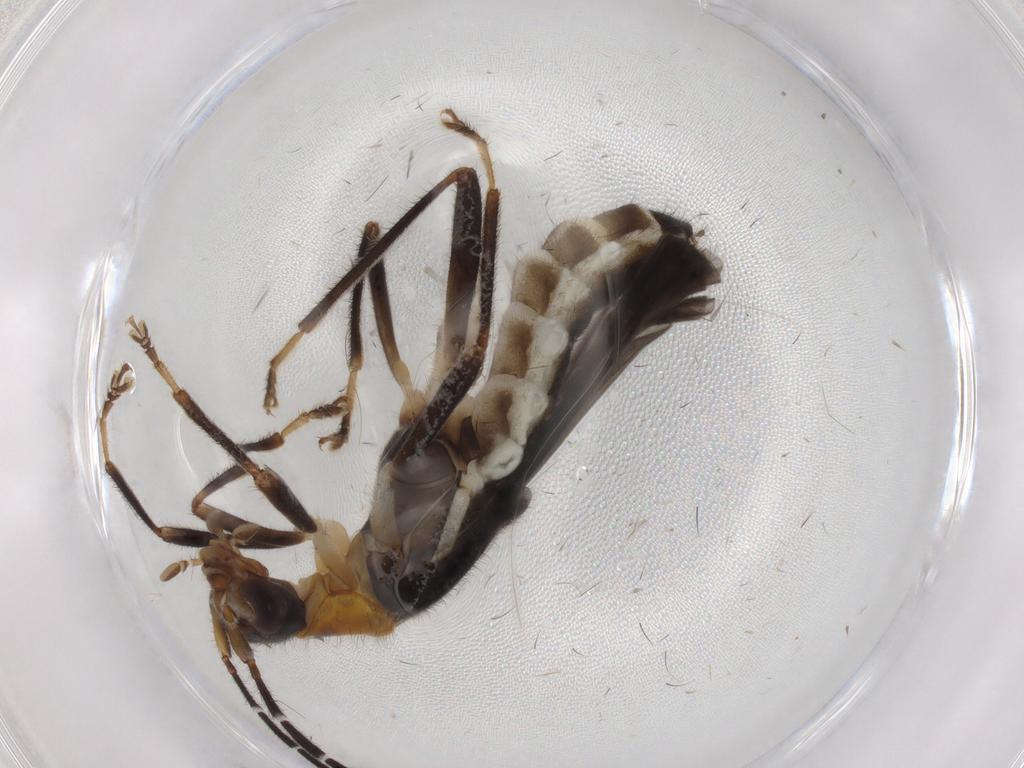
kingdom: Animalia
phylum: Arthropoda
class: Insecta
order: Coleoptera
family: Cantharidae
